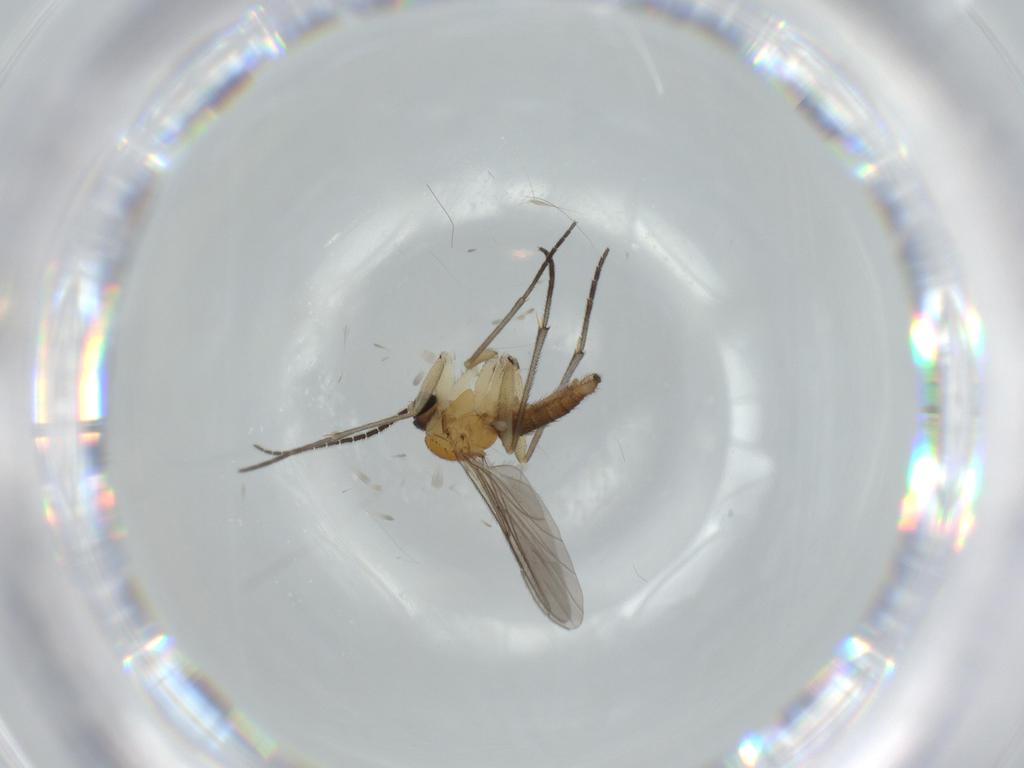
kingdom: Animalia
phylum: Arthropoda
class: Insecta
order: Diptera
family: Sciaridae
